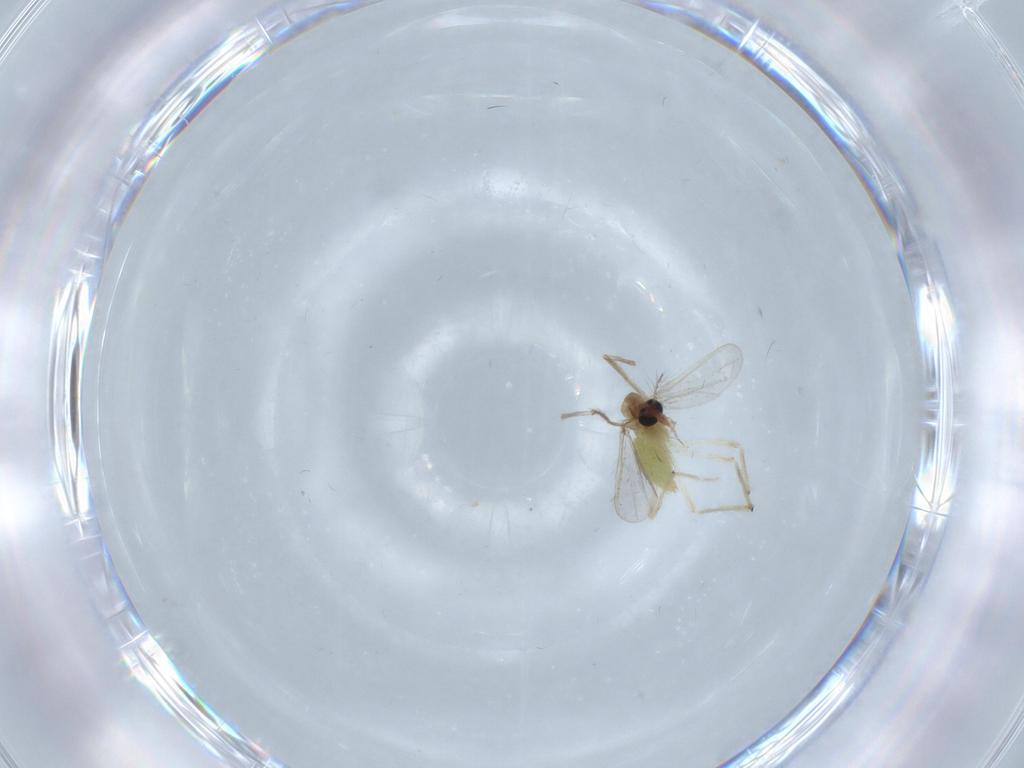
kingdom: Animalia
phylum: Arthropoda
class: Insecta
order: Diptera
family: Chironomidae
